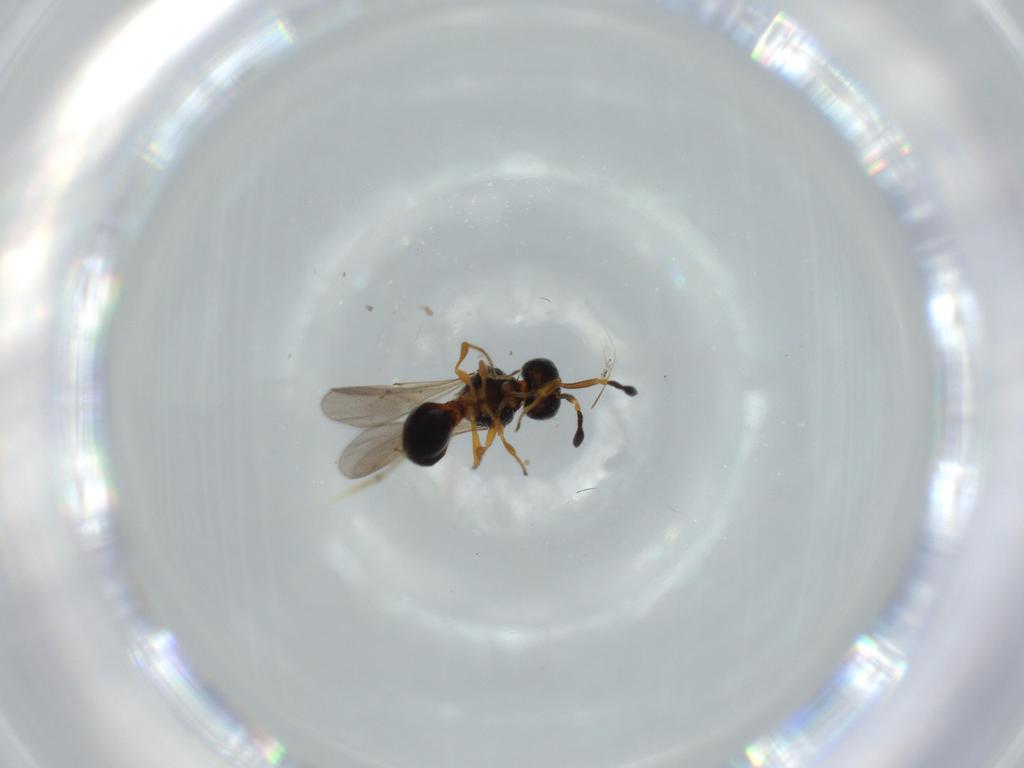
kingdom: Animalia
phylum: Arthropoda
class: Insecta
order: Hymenoptera
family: Scelionidae
